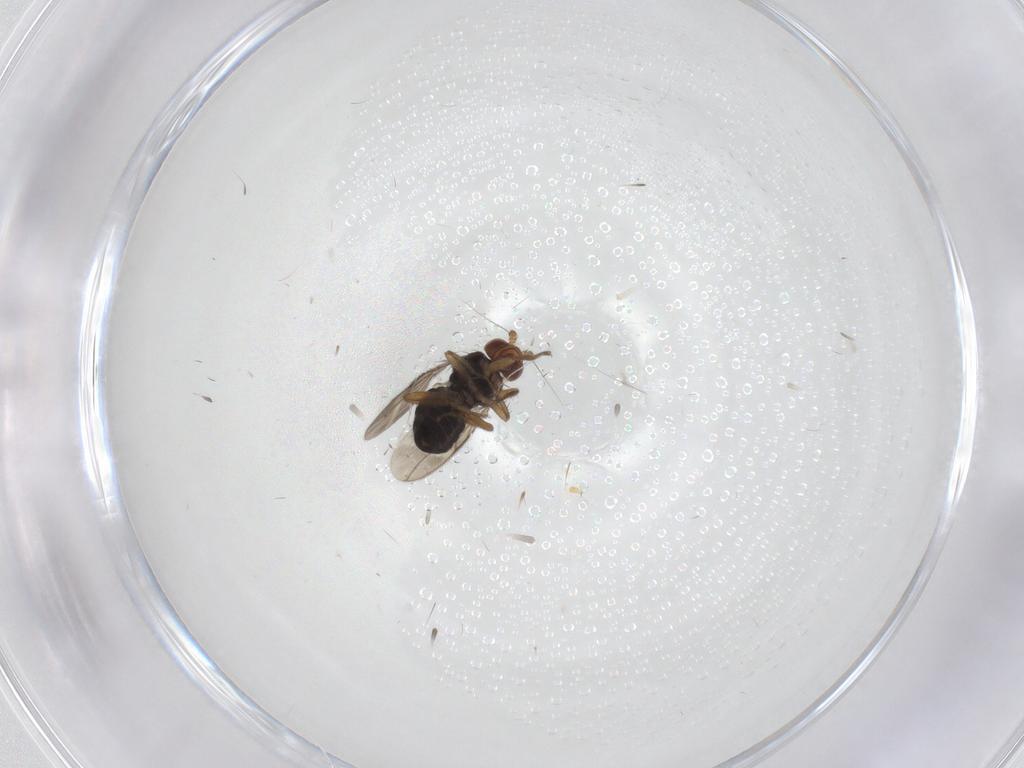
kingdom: Animalia
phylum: Arthropoda
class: Insecta
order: Diptera
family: Sphaeroceridae
